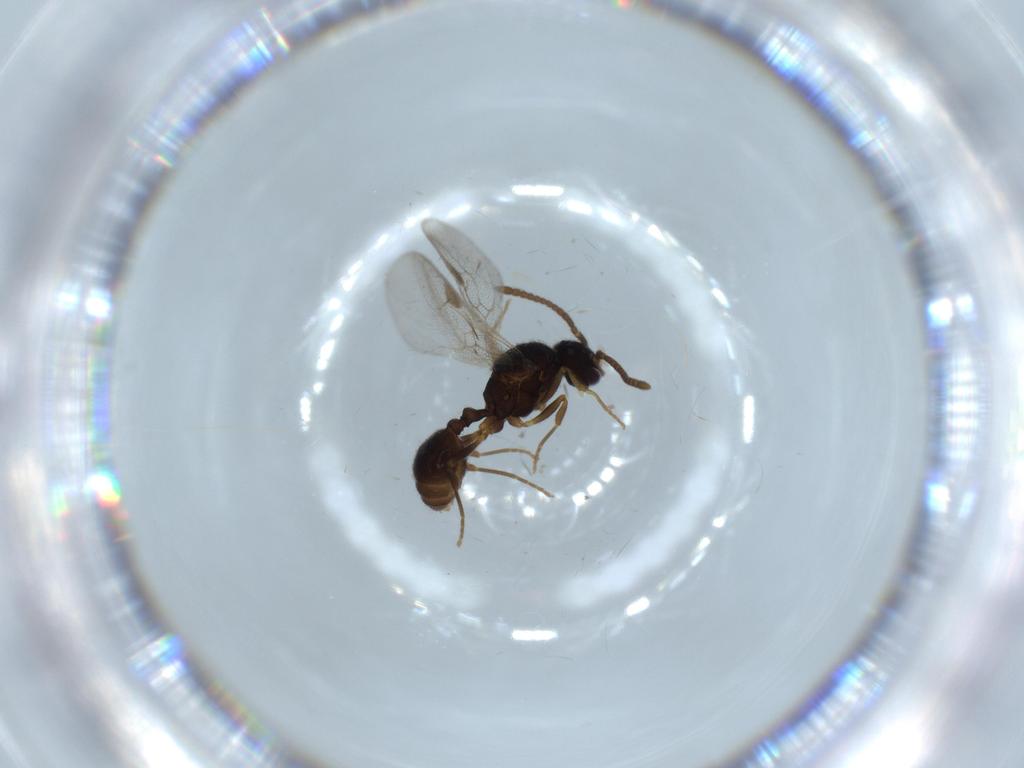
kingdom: Animalia
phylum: Arthropoda
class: Insecta
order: Hymenoptera
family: Formicidae
